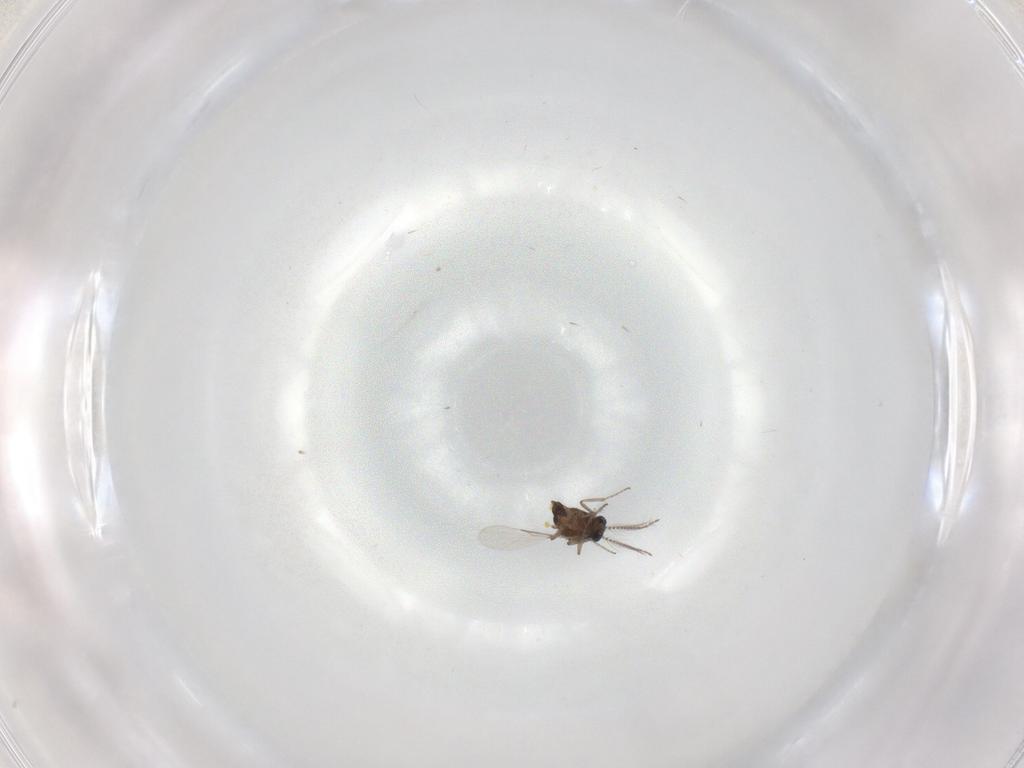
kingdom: Animalia
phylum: Arthropoda
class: Insecta
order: Diptera
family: Ceratopogonidae
